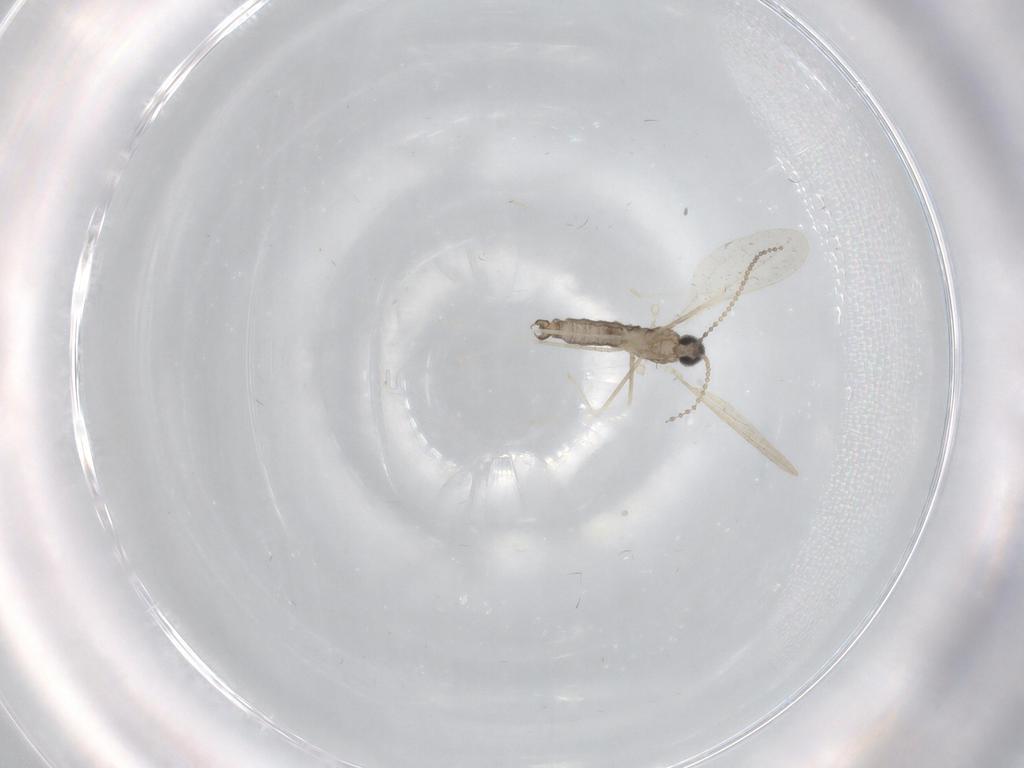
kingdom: Animalia
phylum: Arthropoda
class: Insecta
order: Diptera
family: Cecidomyiidae
